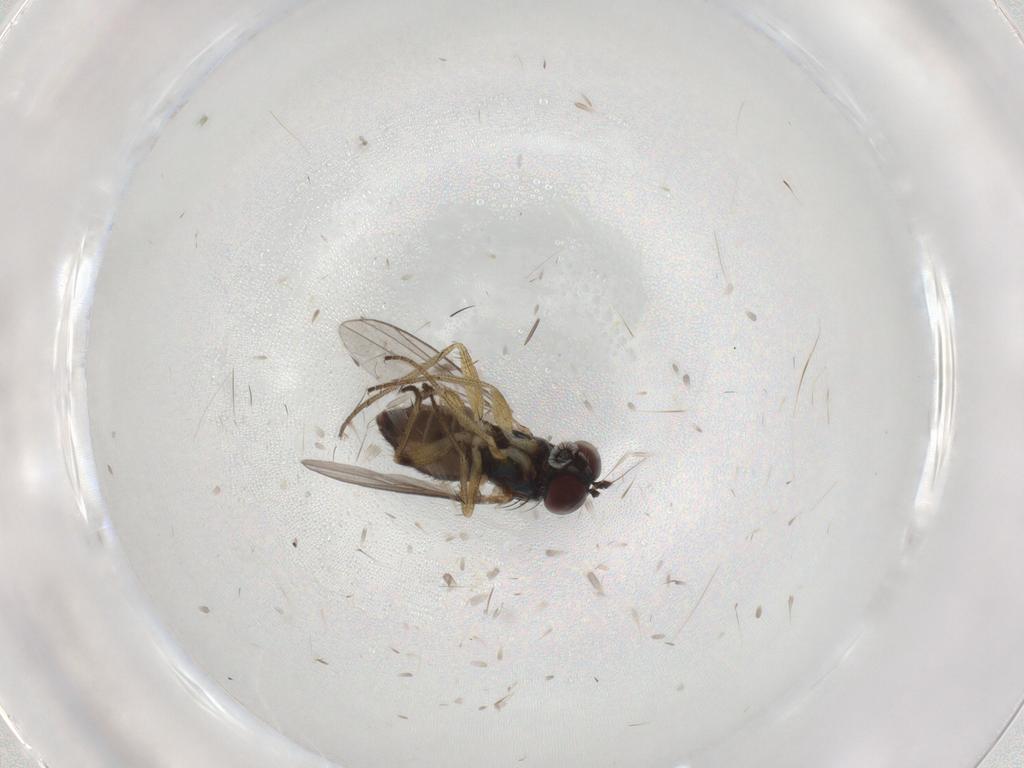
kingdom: Animalia
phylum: Arthropoda
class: Insecta
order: Diptera
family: Dolichopodidae
